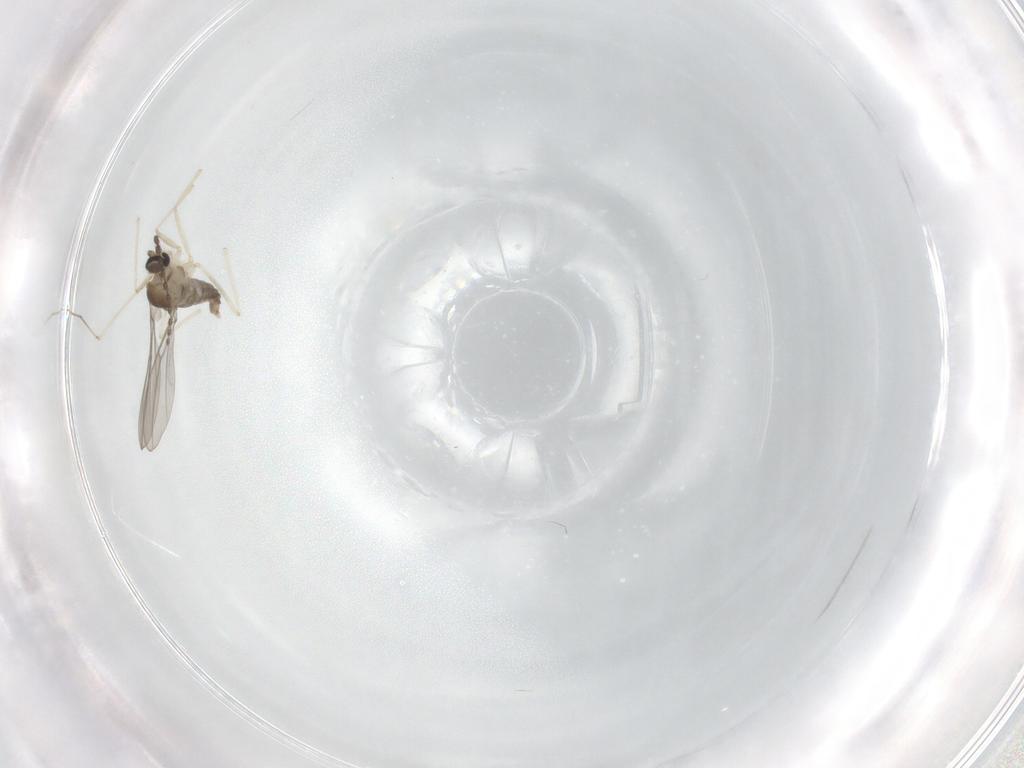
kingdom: Animalia
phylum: Arthropoda
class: Insecta
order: Diptera
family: Cecidomyiidae
